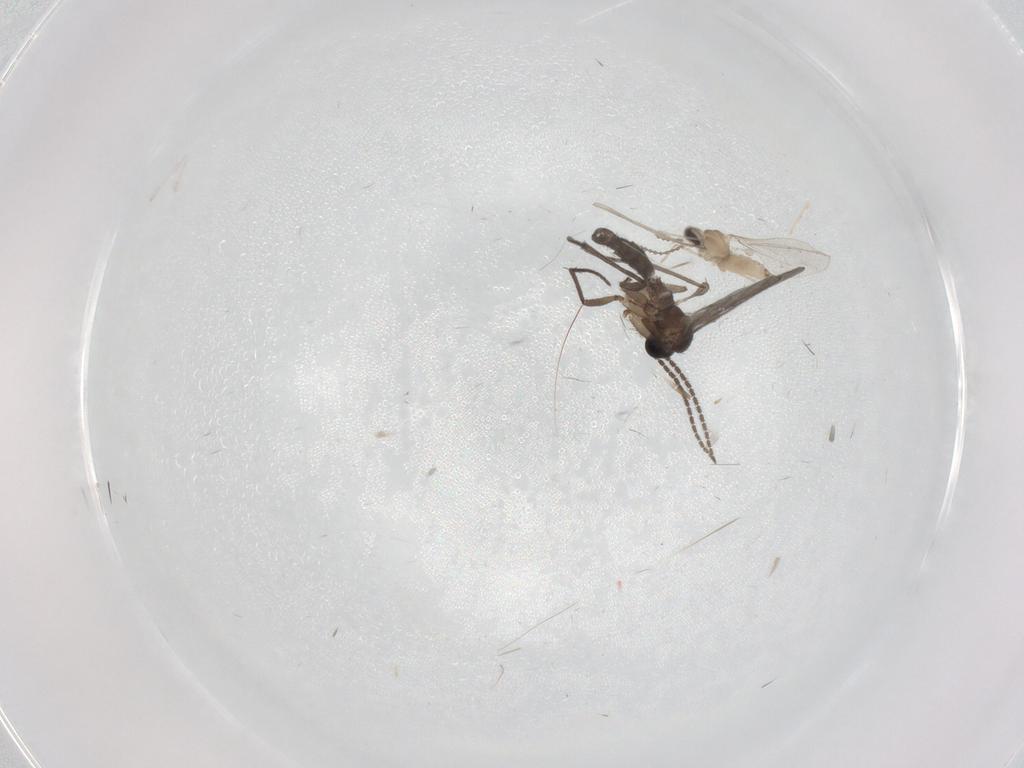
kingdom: Animalia
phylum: Arthropoda
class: Insecta
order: Diptera
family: Sciaridae
